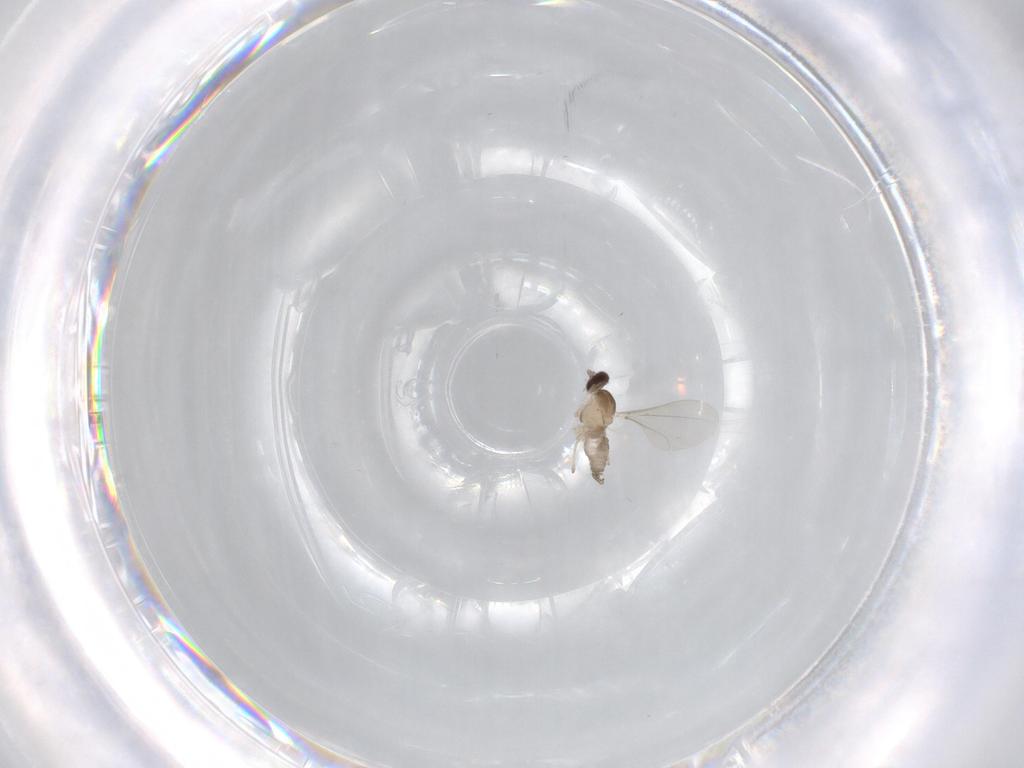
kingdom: Animalia
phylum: Arthropoda
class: Insecta
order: Diptera
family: Cecidomyiidae
